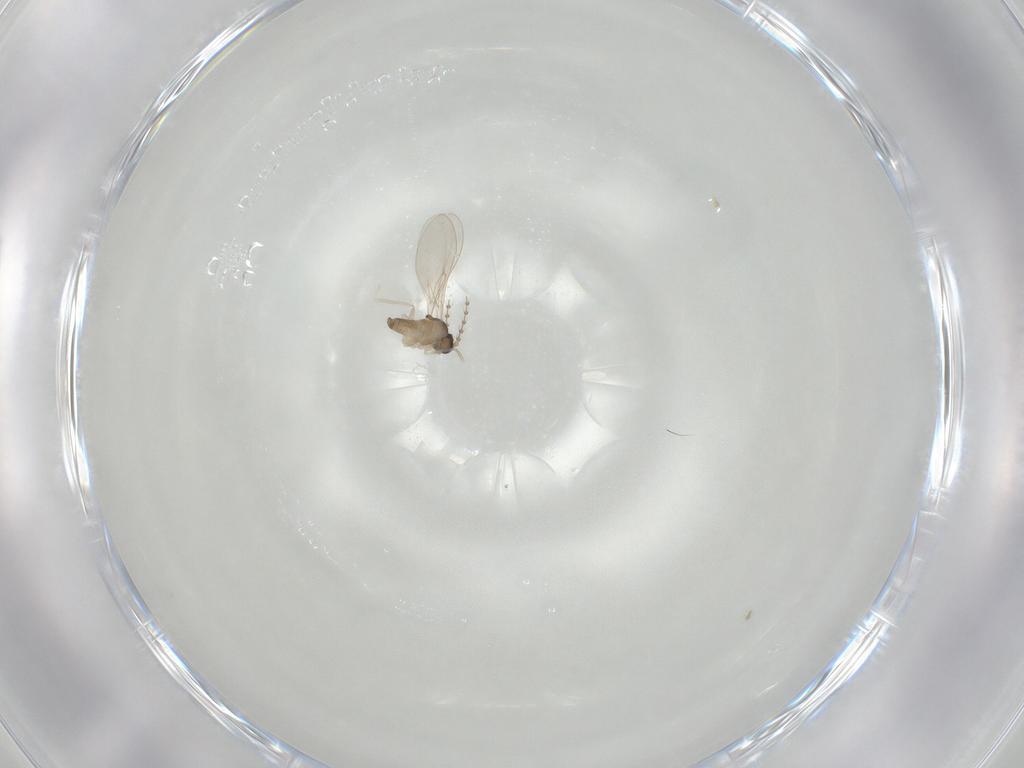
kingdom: Animalia
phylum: Arthropoda
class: Insecta
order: Diptera
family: Cecidomyiidae
